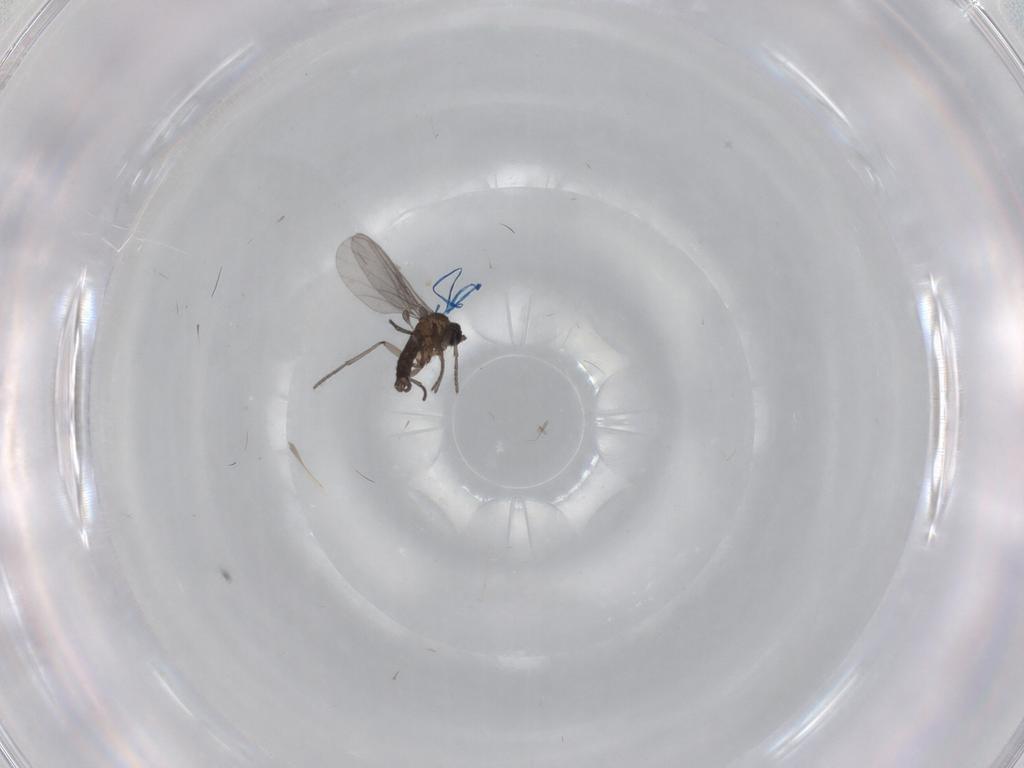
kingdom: Animalia
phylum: Arthropoda
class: Insecta
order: Diptera
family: Sciaridae
